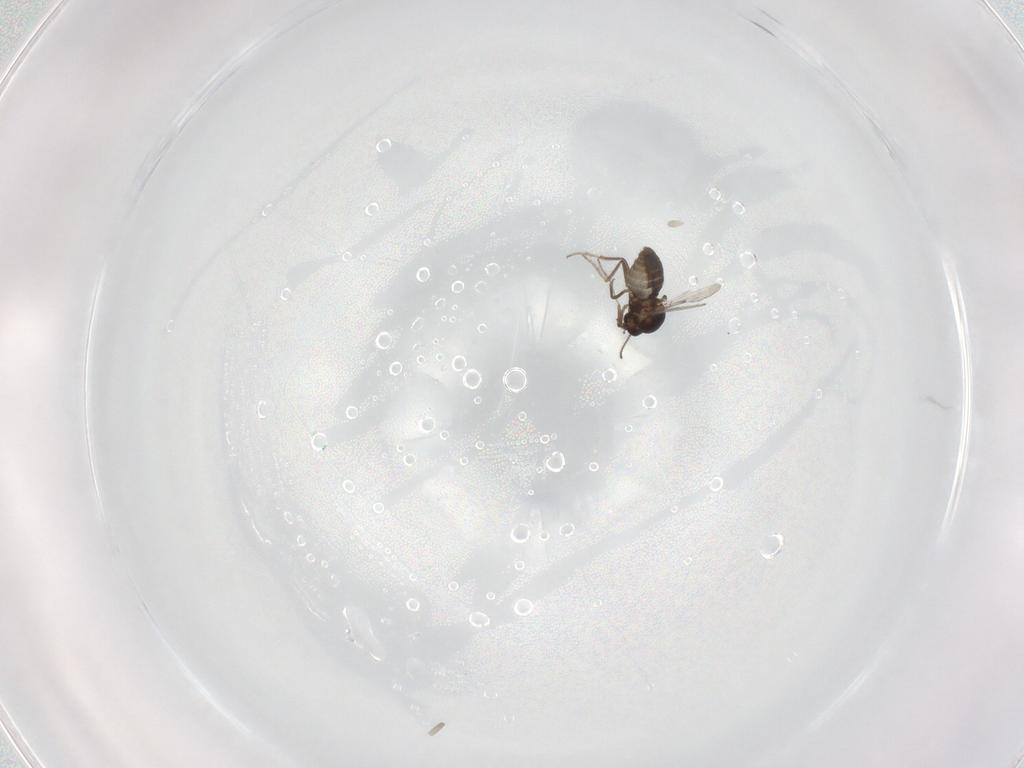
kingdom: Animalia
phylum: Arthropoda
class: Insecta
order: Diptera
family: Ceratopogonidae
